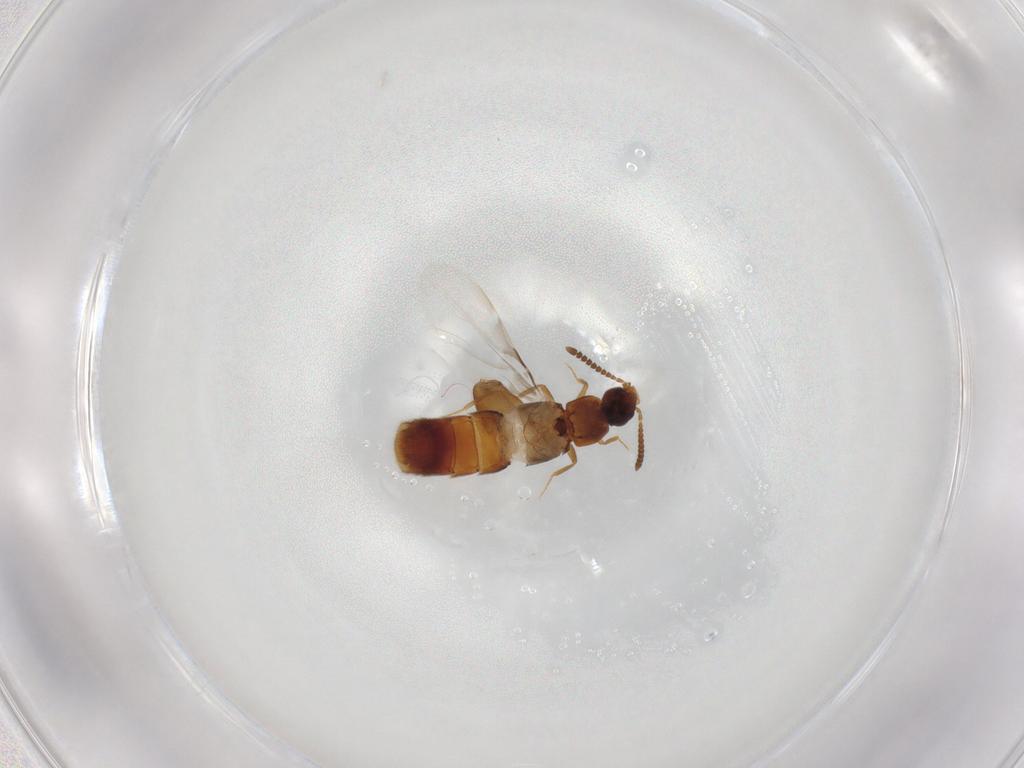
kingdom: Animalia
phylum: Arthropoda
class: Insecta
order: Coleoptera
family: Staphylinidae
